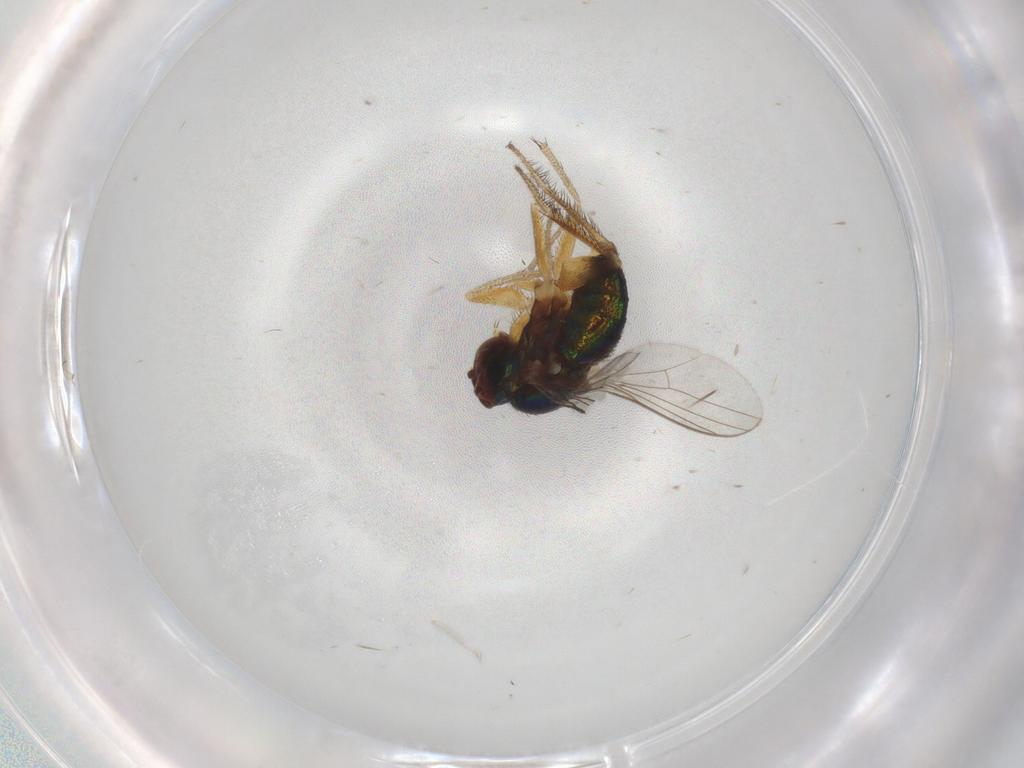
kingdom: Animalia
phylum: Arthropoda
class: Insecta
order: Diptera
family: Dolichopodidae
